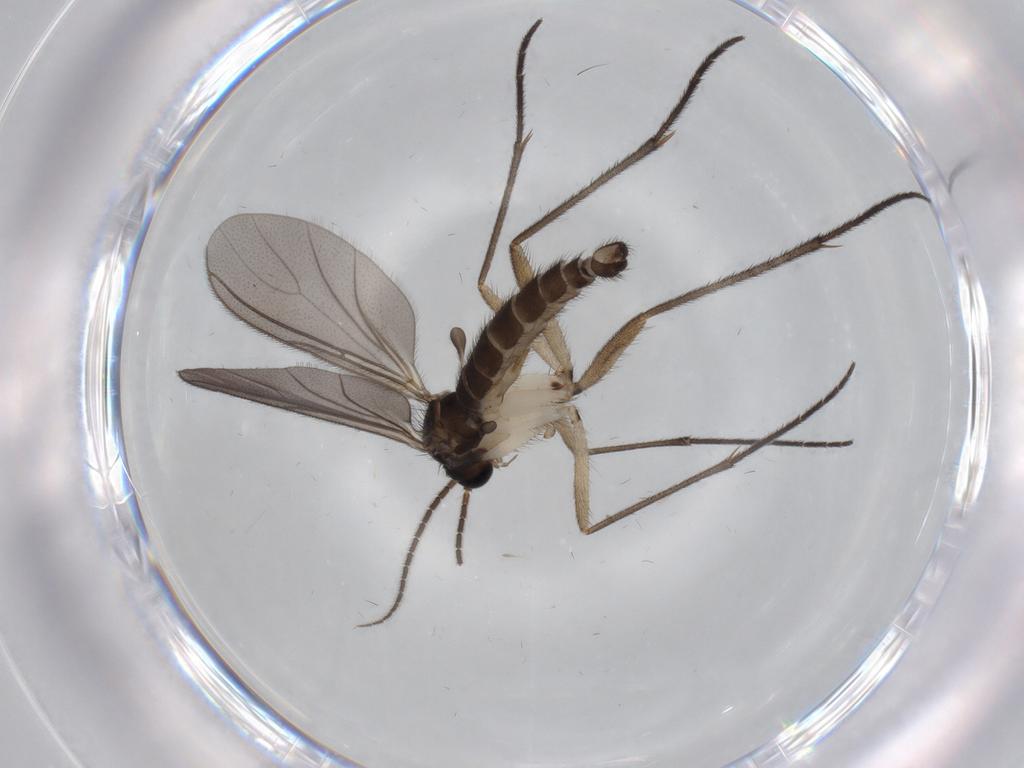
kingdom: Animalia
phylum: Arthropoda
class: Insecta
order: Diptera
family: Sciaridae
